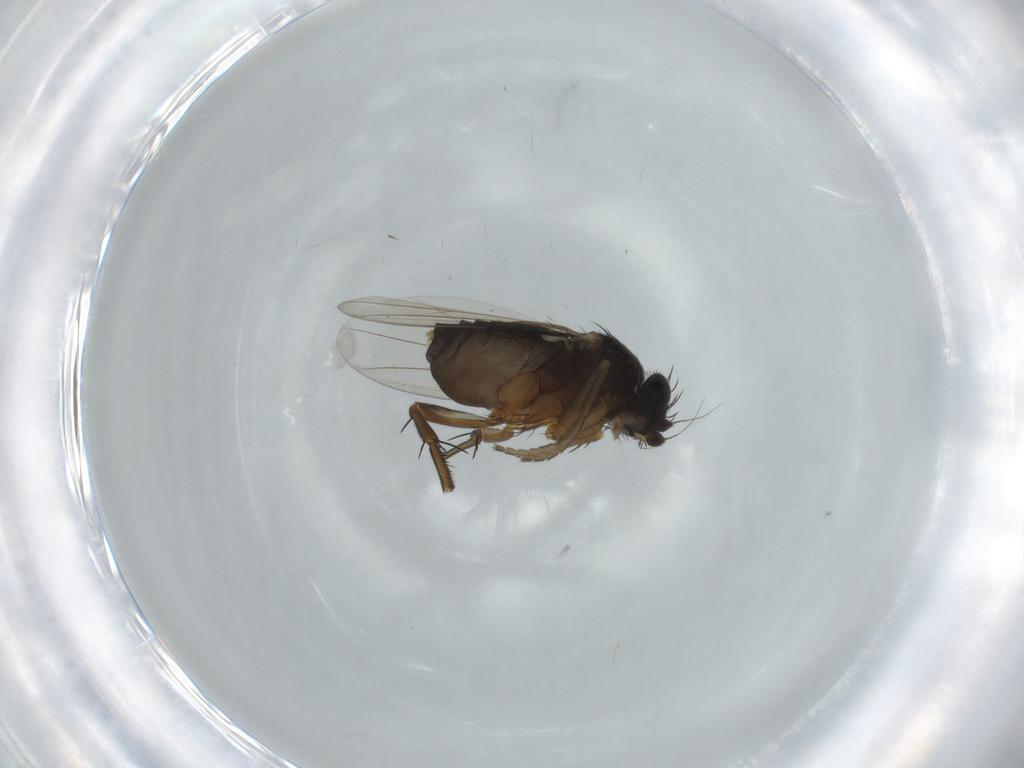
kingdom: Animalia
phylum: Arthropoda
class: Insecta
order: Diptera
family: Phoridae
